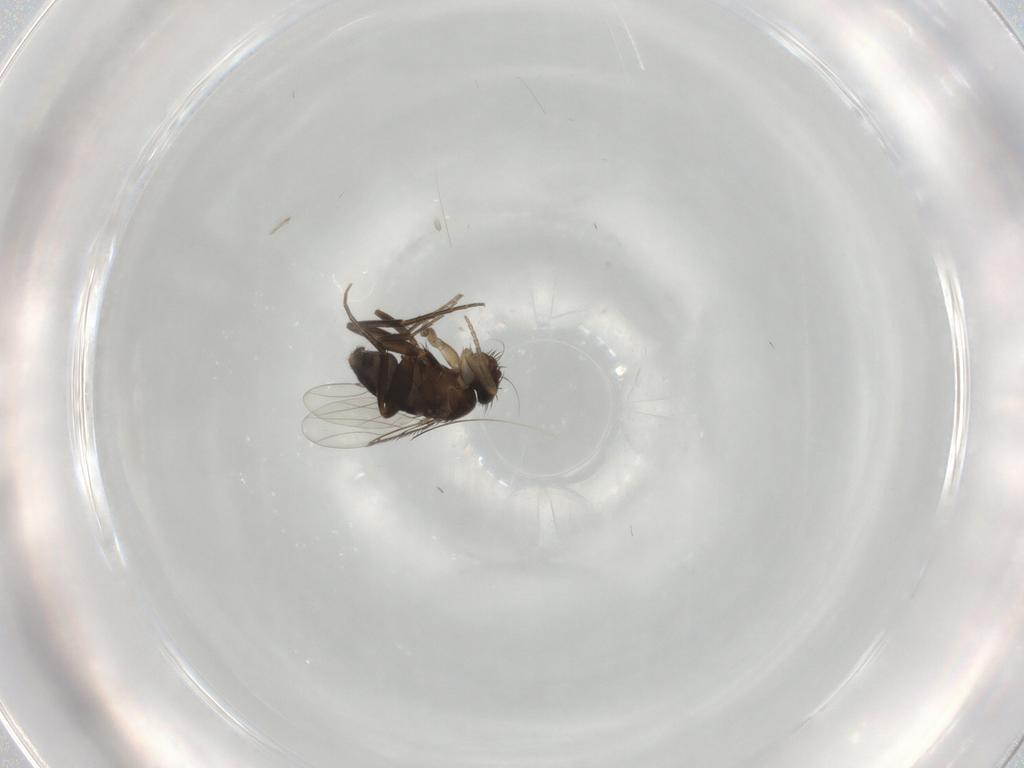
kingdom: Animalia
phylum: Arthropoda
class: Insecta
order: Diptera
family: Phoridae
